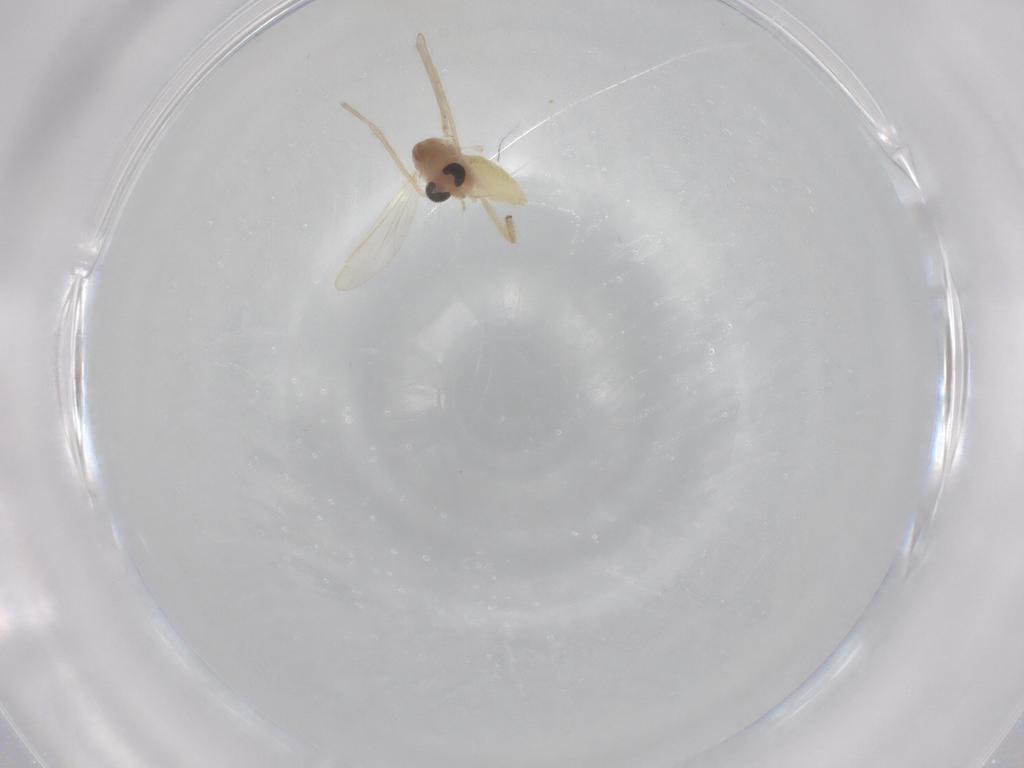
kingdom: Animalia
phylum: Arthropoda
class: Insecta
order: Diptera
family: Chironomidae
